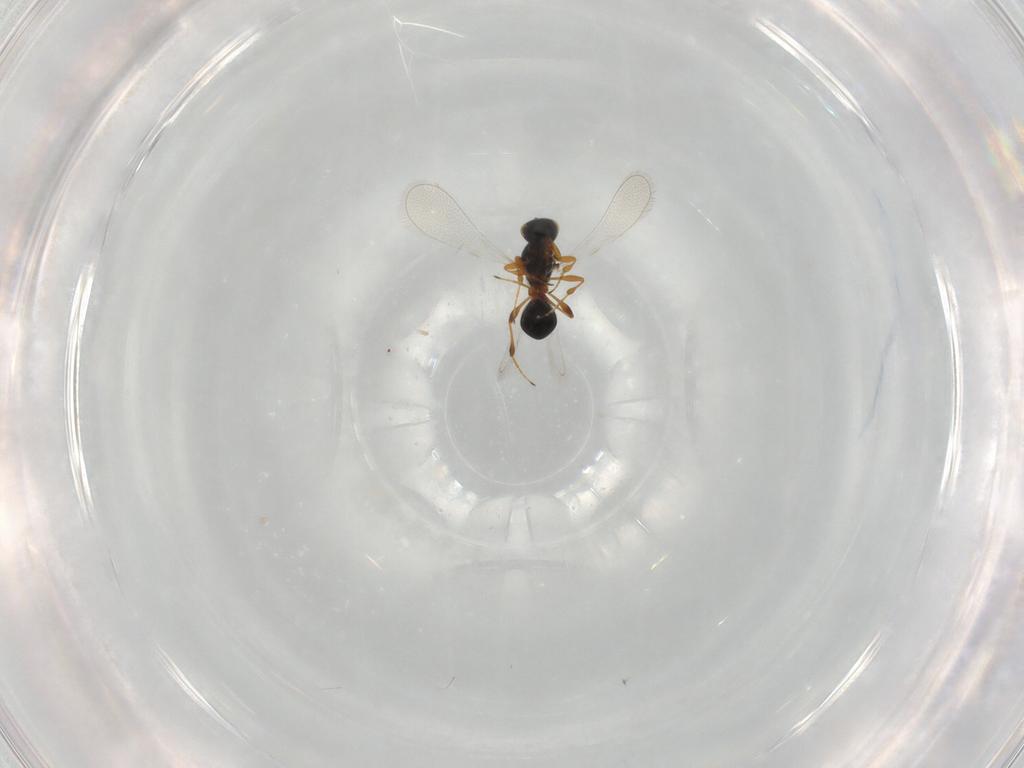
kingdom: Animalia
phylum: Arthropoda
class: Insecta
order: Hymenoptera
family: Platygastridae
